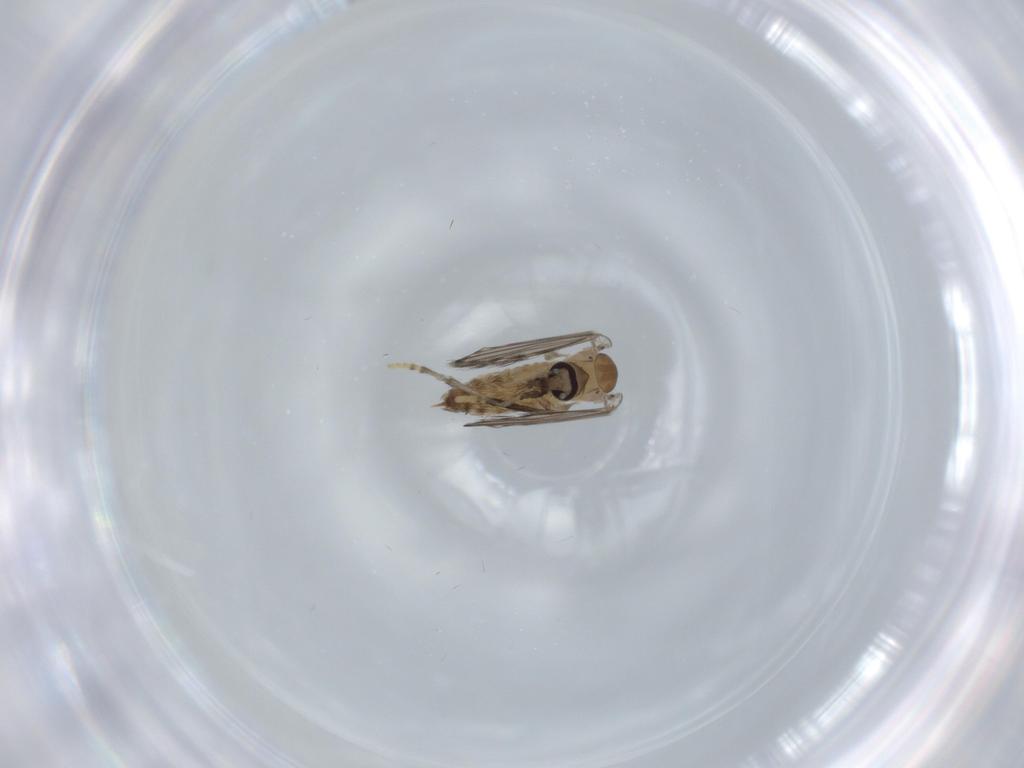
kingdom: Animalia
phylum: Arthropoda
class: Insecta
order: Diptera
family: Psychodidae
